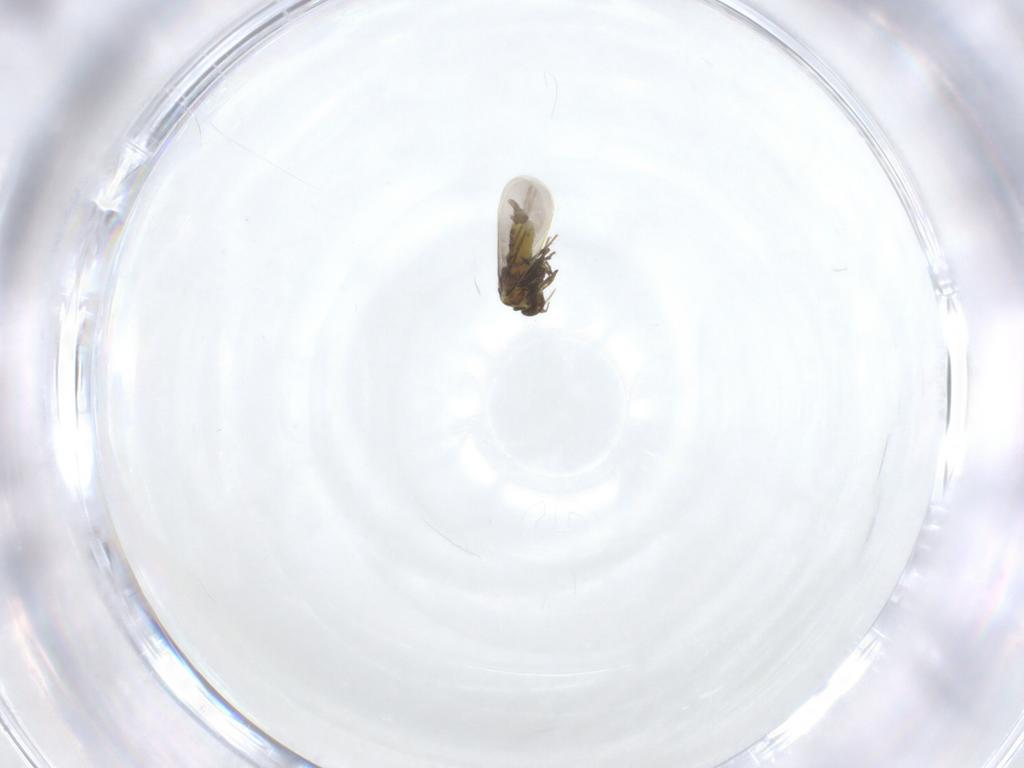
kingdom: Animalia
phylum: Arthropoda
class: Insecta
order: Hemiptera
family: Aleyrodidae
